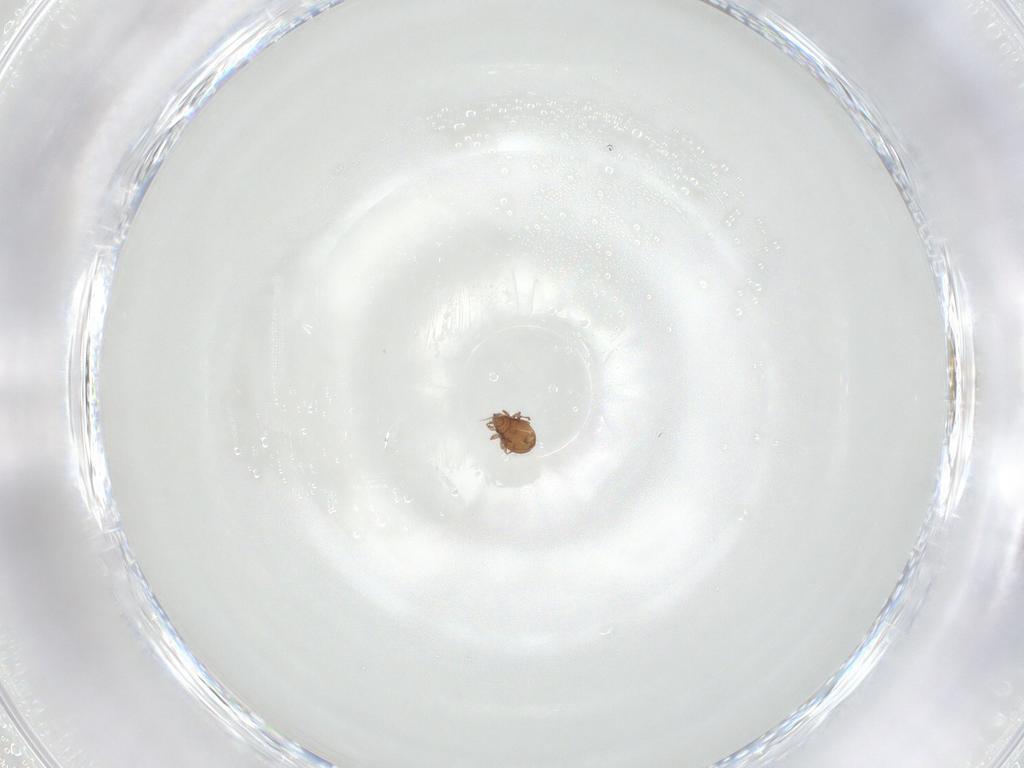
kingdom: Animalia
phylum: Arthropoda
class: Arachnida
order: Sarcoptiformes
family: Oribatulidae
